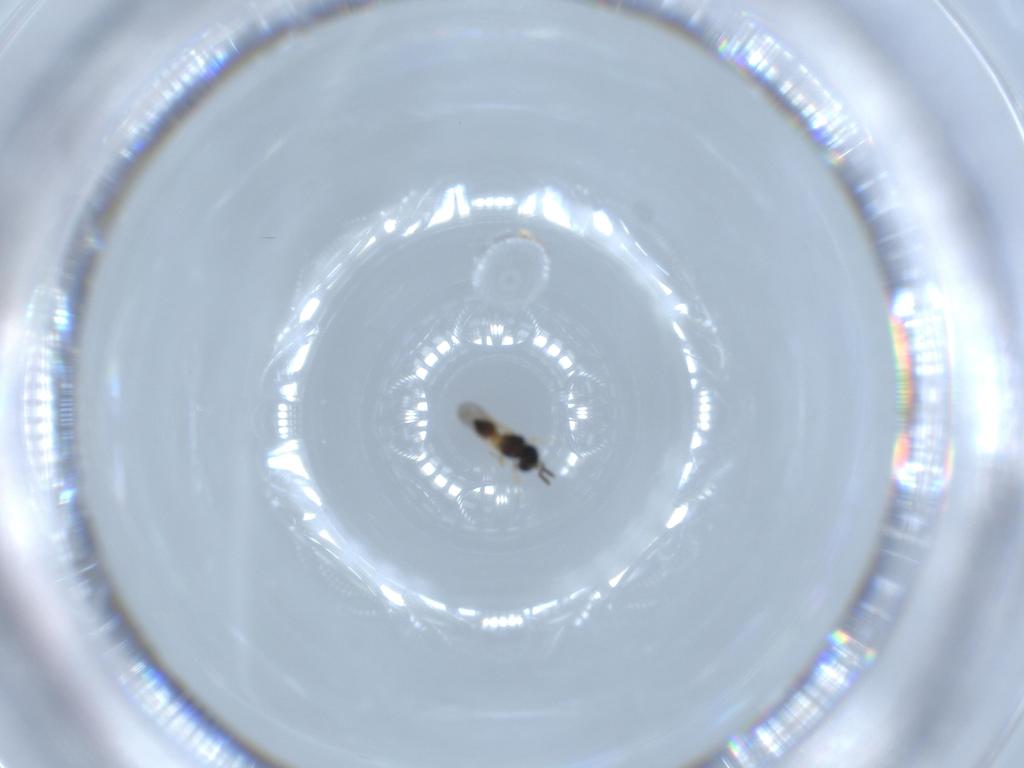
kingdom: Animalia
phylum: Arthropoda
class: Insecta
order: Hymenoptera
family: Scelionidae
